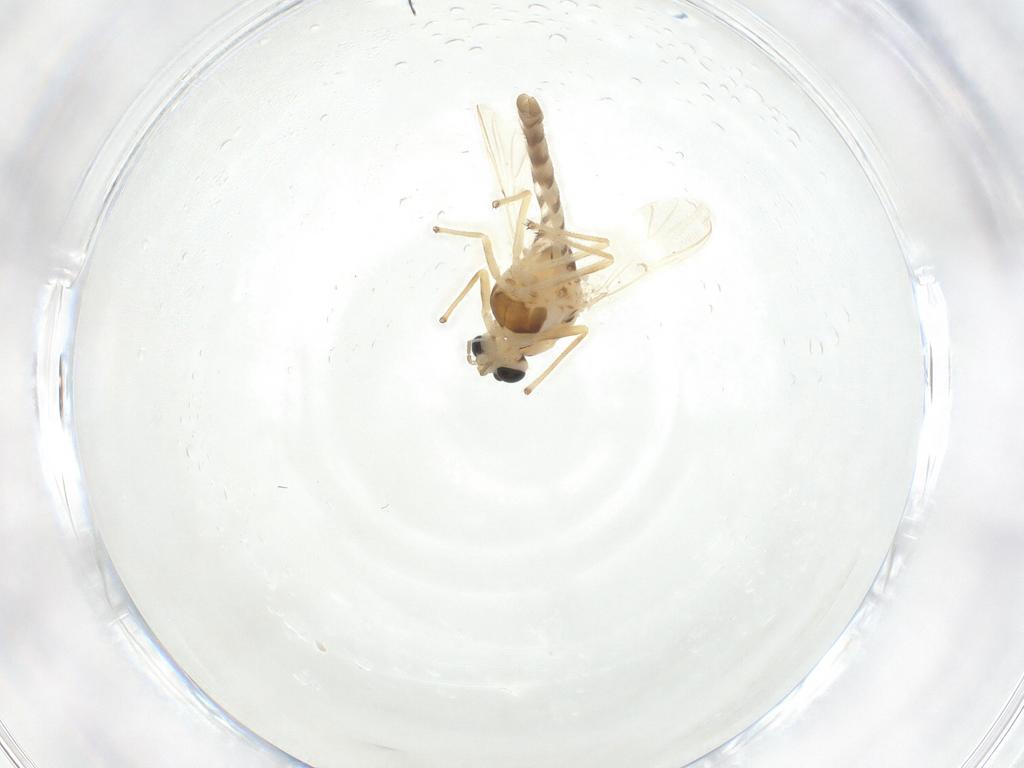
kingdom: Animalia
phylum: Arthropoda
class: Insecta
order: Diptera
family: Chironomidae
